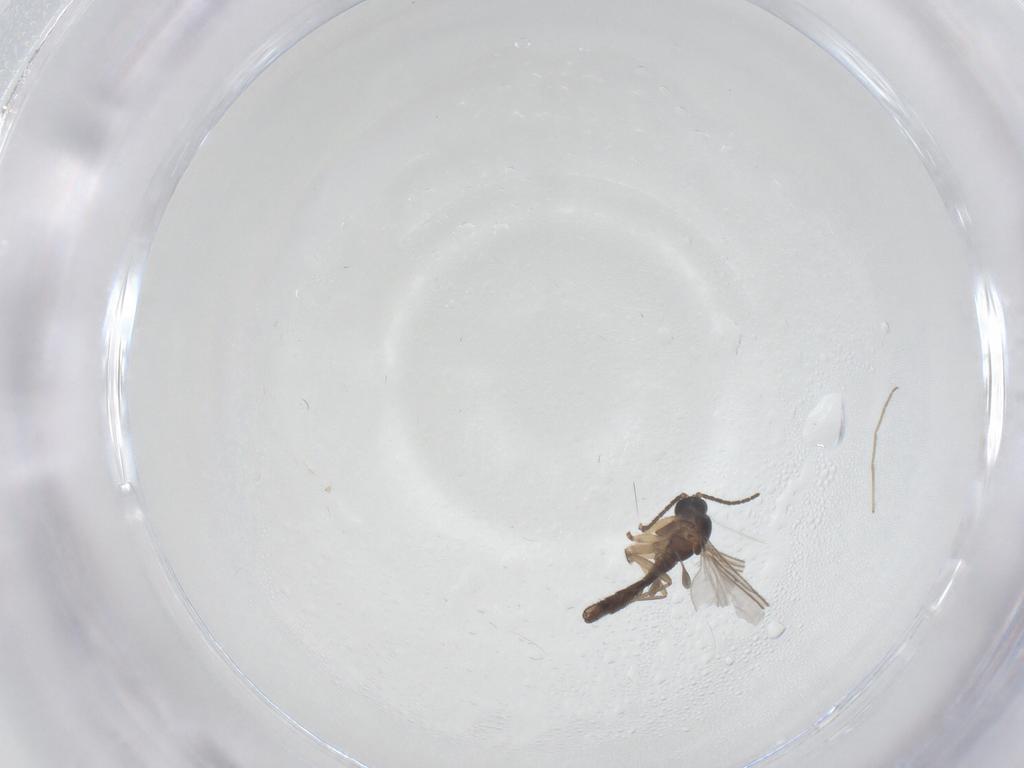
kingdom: Animalia
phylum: Arthropoda
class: Insecta
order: Diptera
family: Sciaridae
